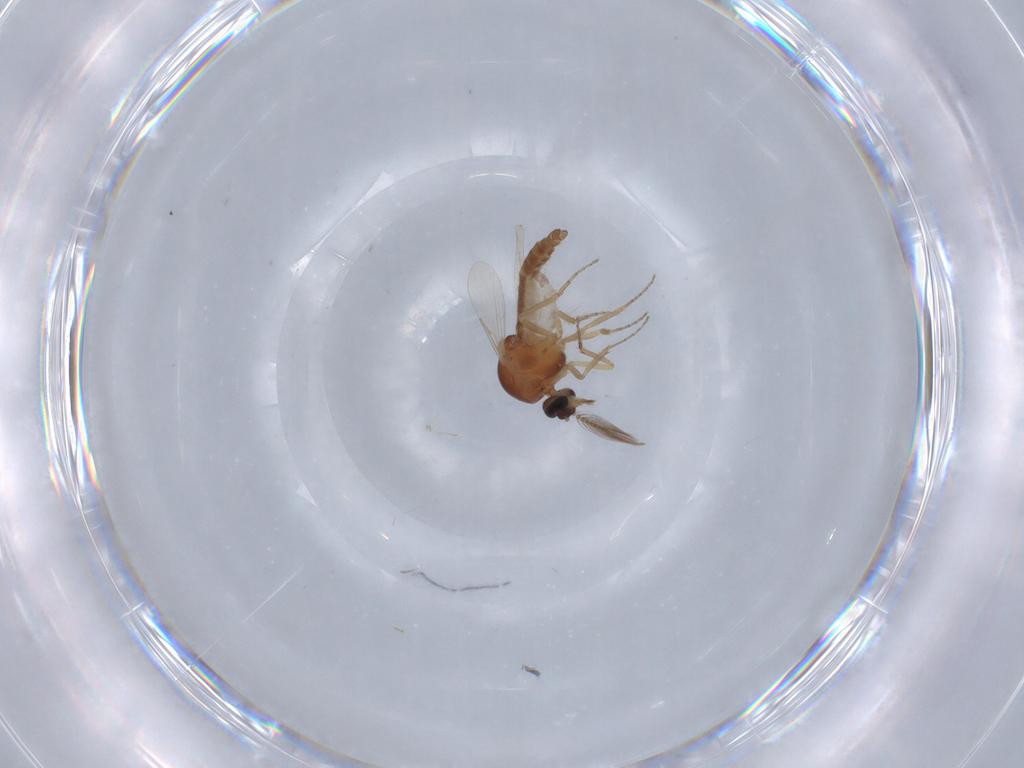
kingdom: Animalia
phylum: Arthropoda
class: Insecta
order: Diptera
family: Ceratopogonidae
